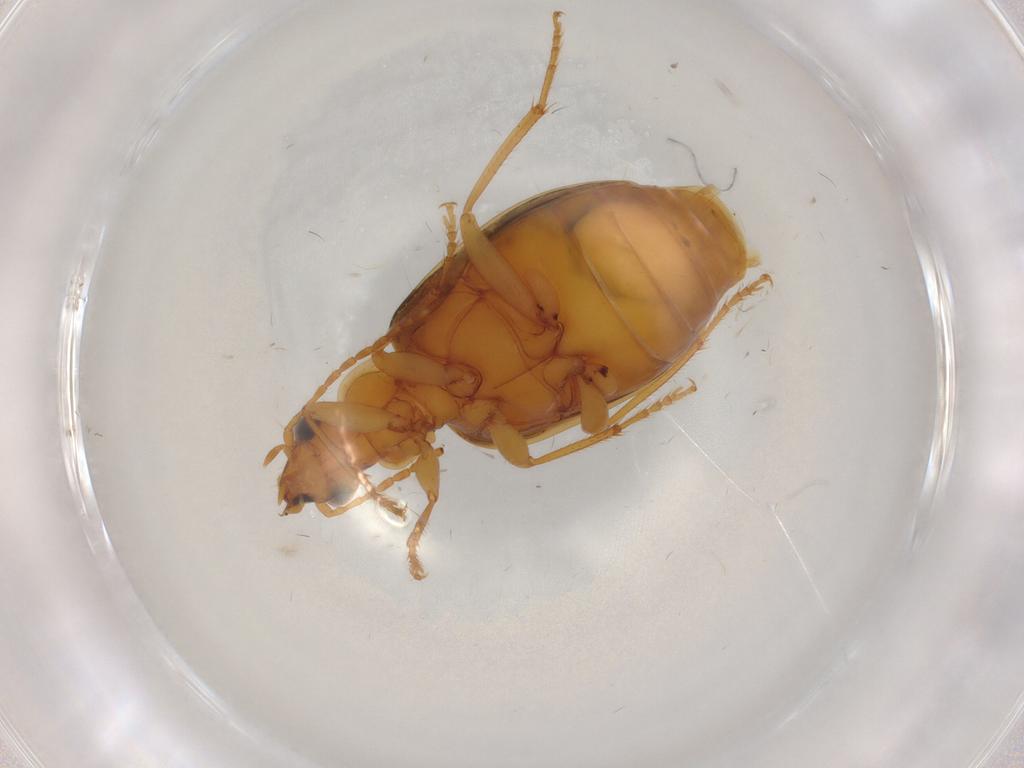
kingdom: Animalia
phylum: Arthropoda
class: Insecta
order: Coleoptera
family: Carabidae
